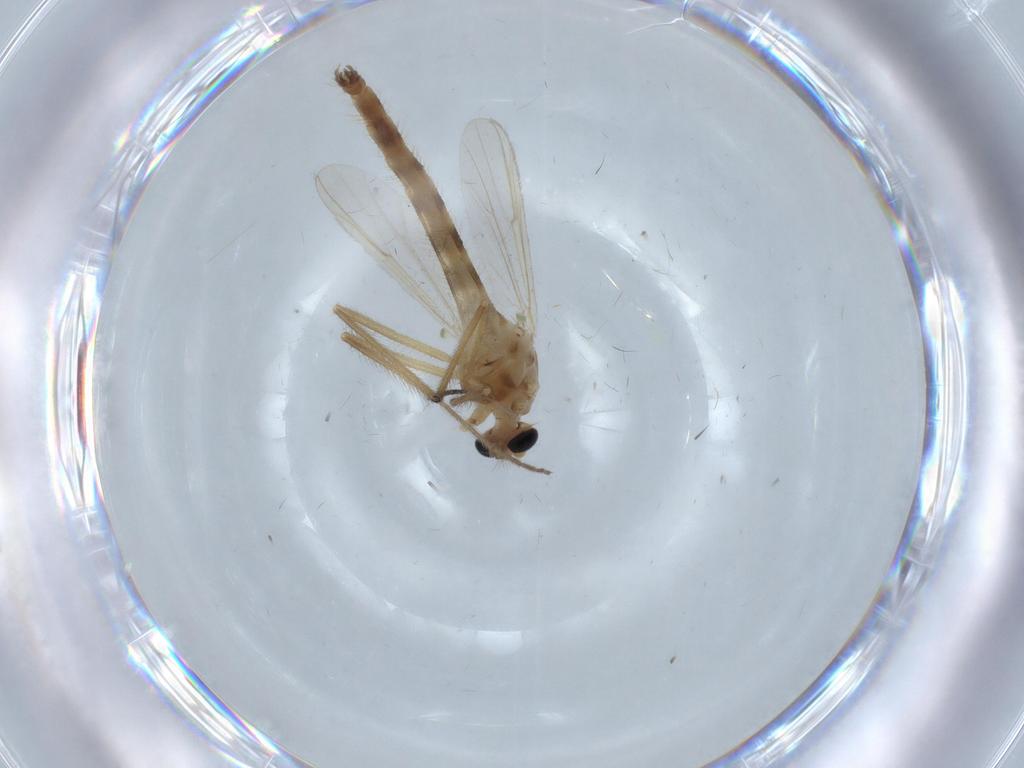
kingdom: Animalia
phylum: Arthropoda
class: Insecta
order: Diptera
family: Chironomidae
